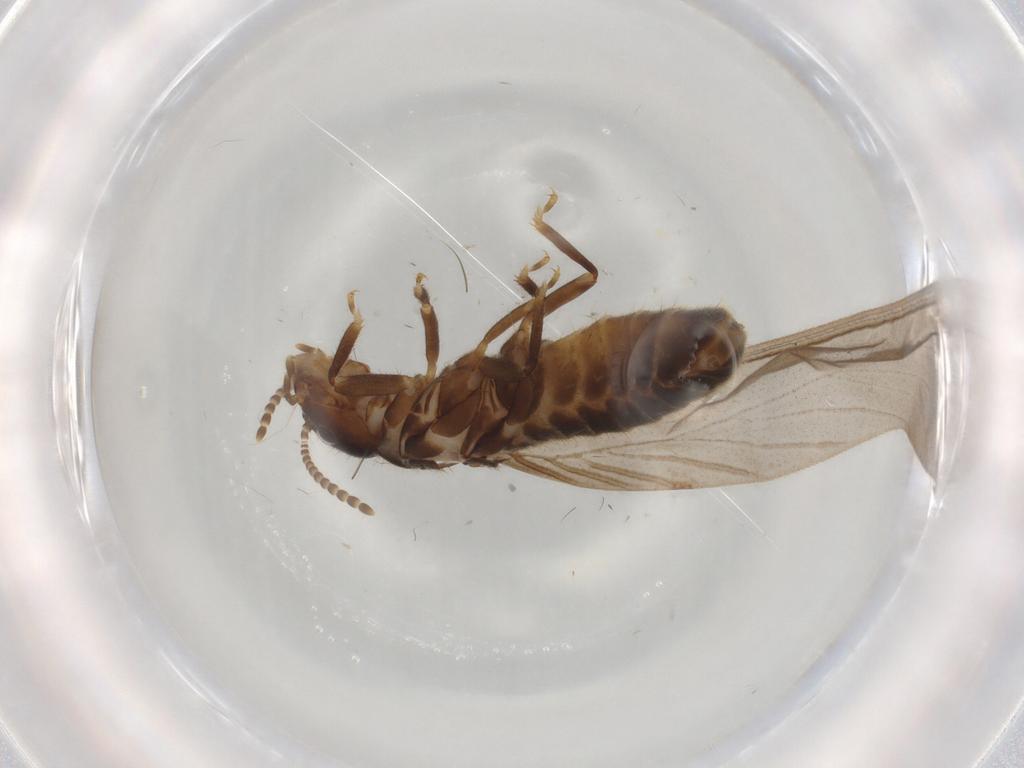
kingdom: Animalia
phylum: Arthropoda
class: Insecta
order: Blattodea
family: Termitidae
